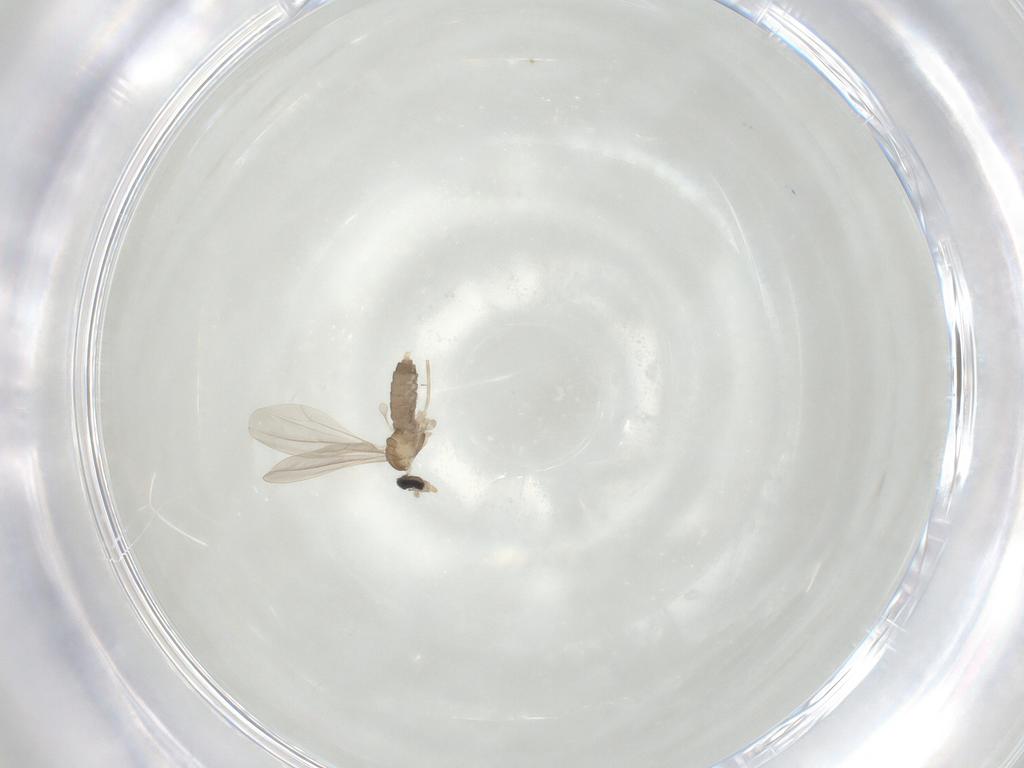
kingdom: Animalia
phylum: Arthropoda
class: Insecta
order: Diptera
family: Cecidomyiidae
